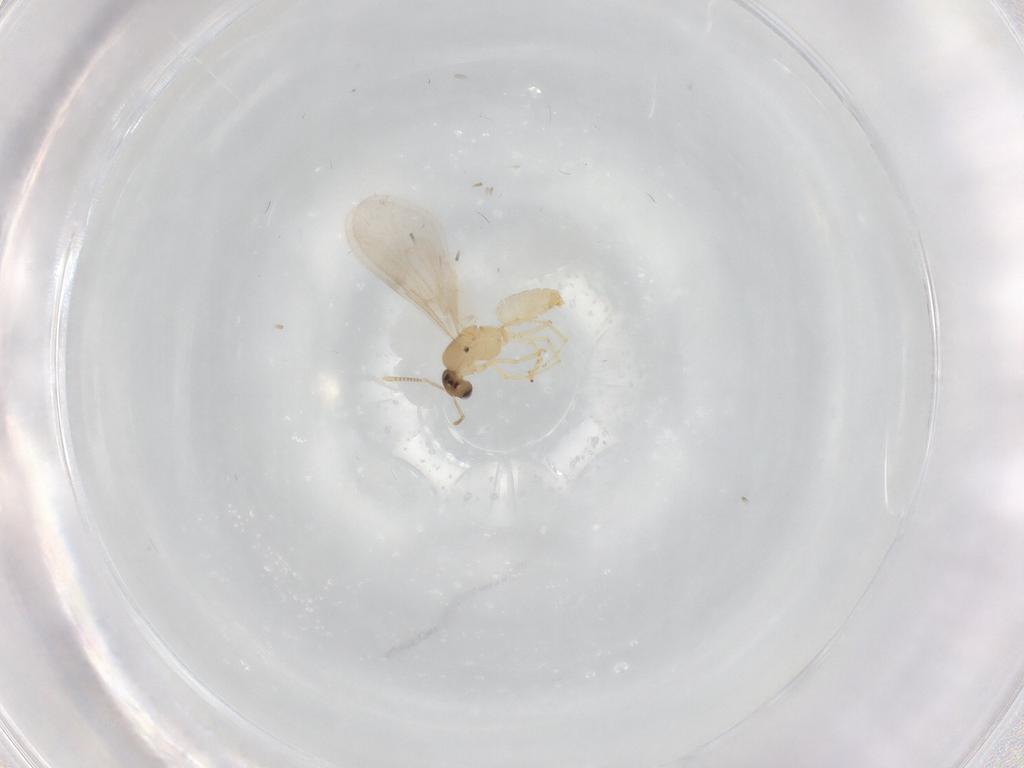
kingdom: Animalia
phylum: Arthropoda
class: Insecta
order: Hymenoptera
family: Formicidae
